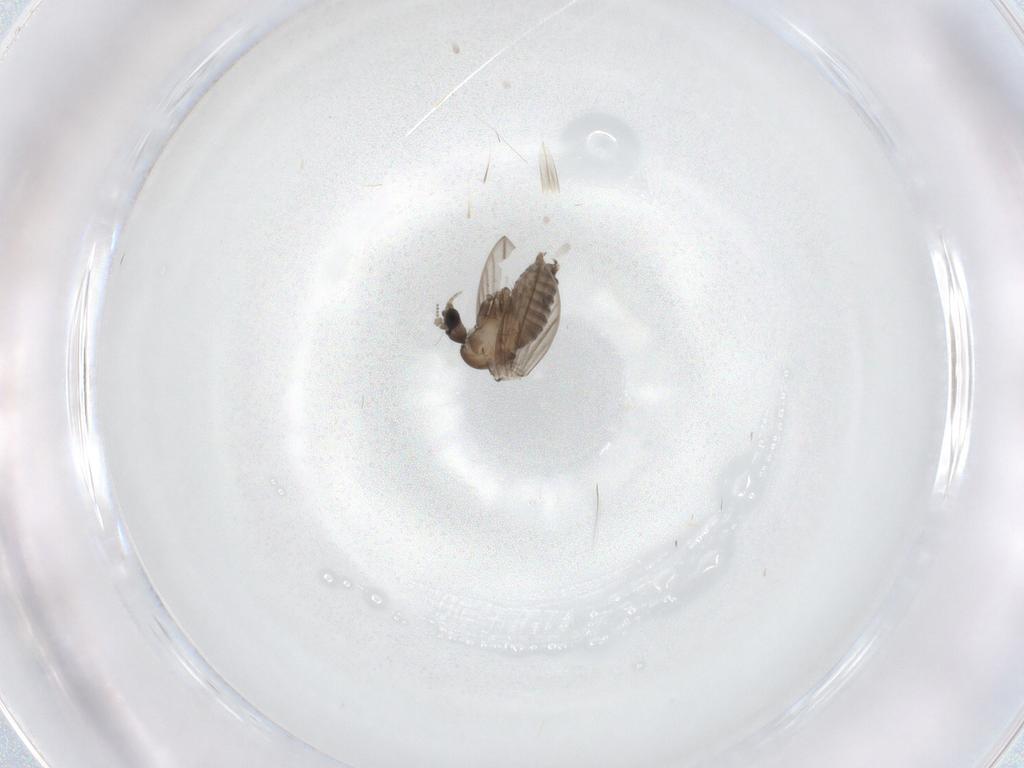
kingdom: Animalia
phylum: Arthropoda
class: Insecta
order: Diptera
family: Psychodidae
